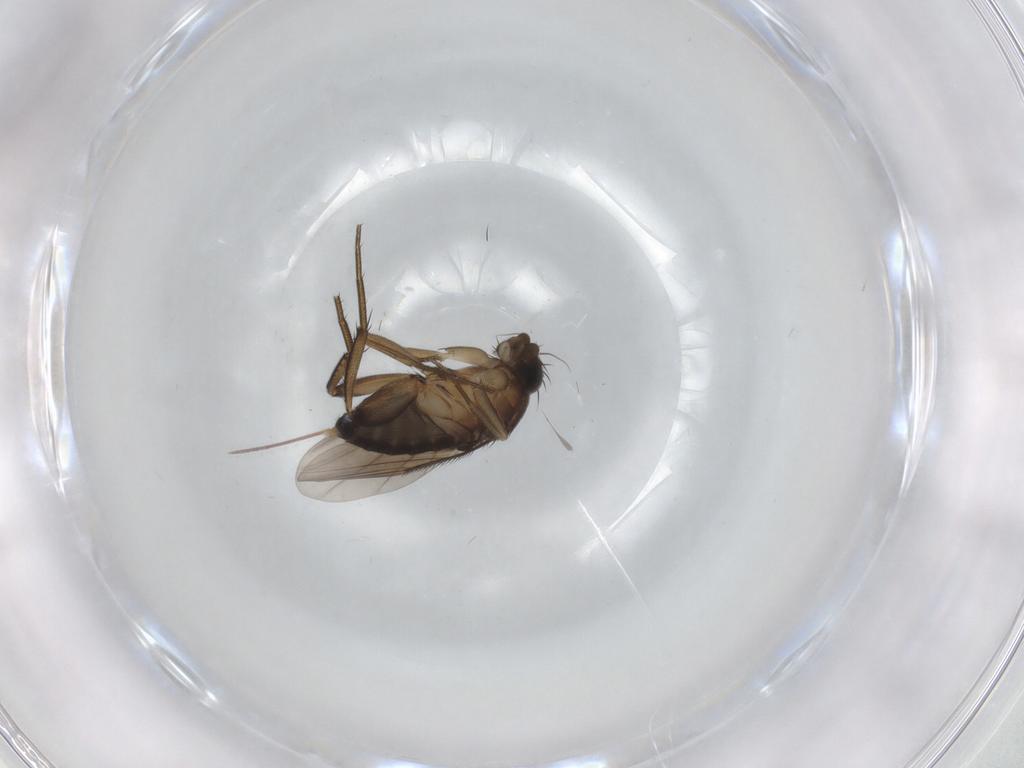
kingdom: Animalia
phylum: Arthropoda
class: Insecta
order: Diptera
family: Phoridae
